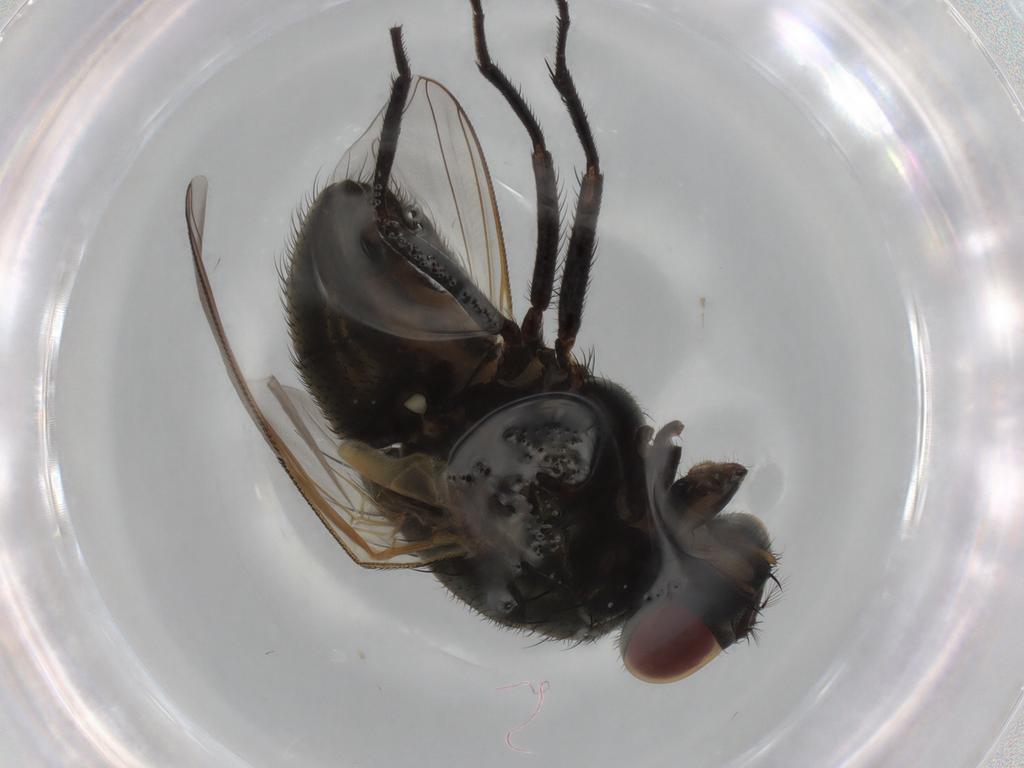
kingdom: Animalia
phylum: Arthropoda
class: Insecta
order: Diptera
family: Muscidae
